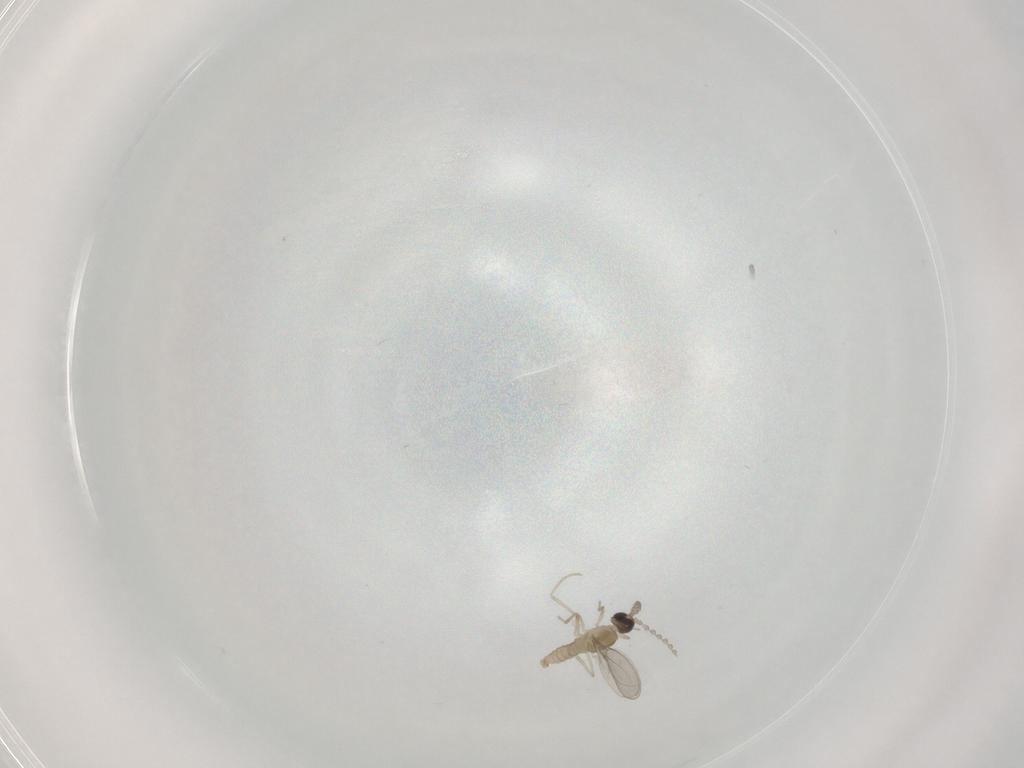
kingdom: Animalia
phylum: Arthropoda
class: Insecta
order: Diptera
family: Cecidomyiidae
